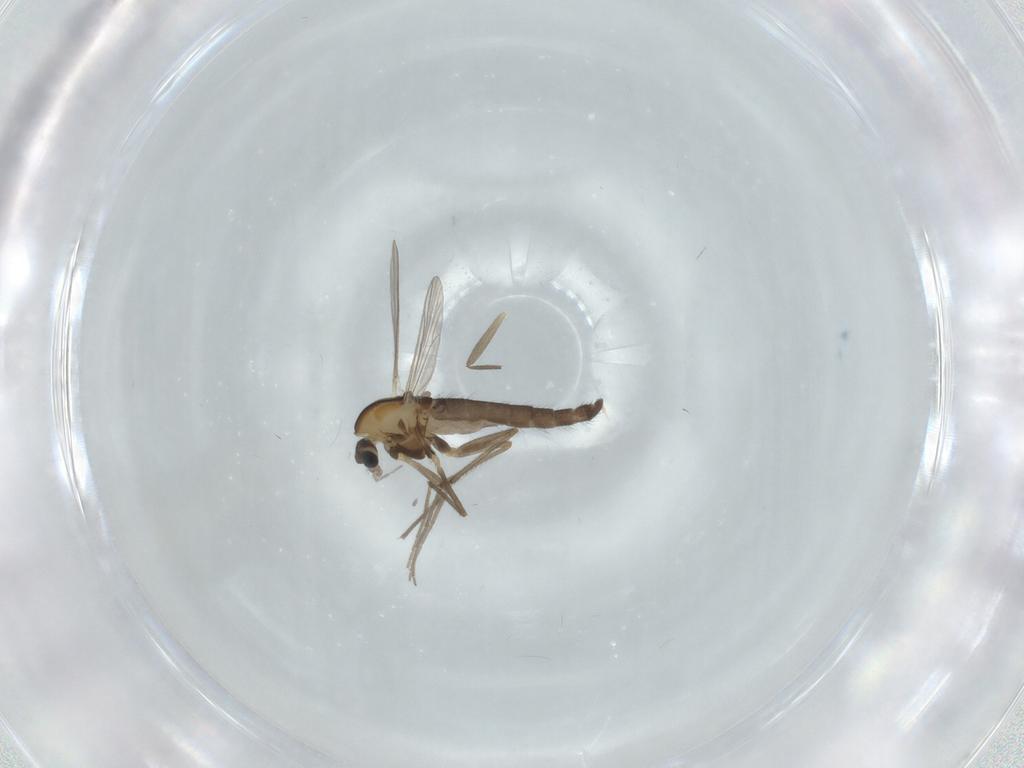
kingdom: Animalia
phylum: Arthropoda
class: Insecta
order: Diptera
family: Chironomidae
